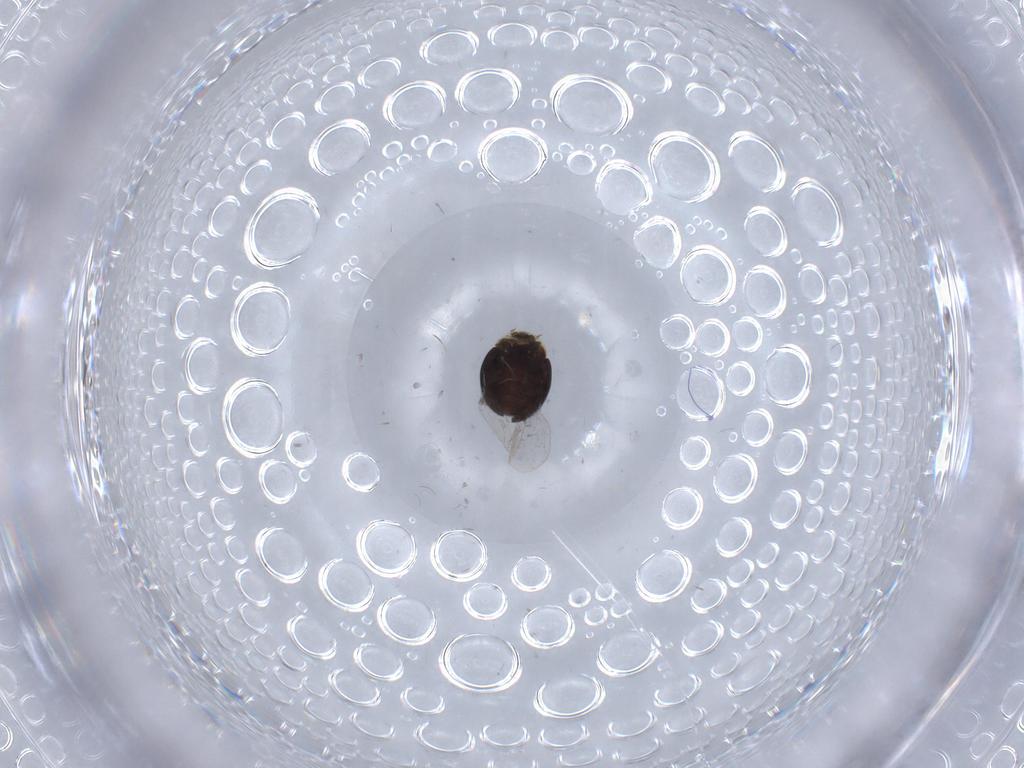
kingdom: Animalia
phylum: Arthropoda
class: Insecta
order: Coleoptera
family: Corylophidae
